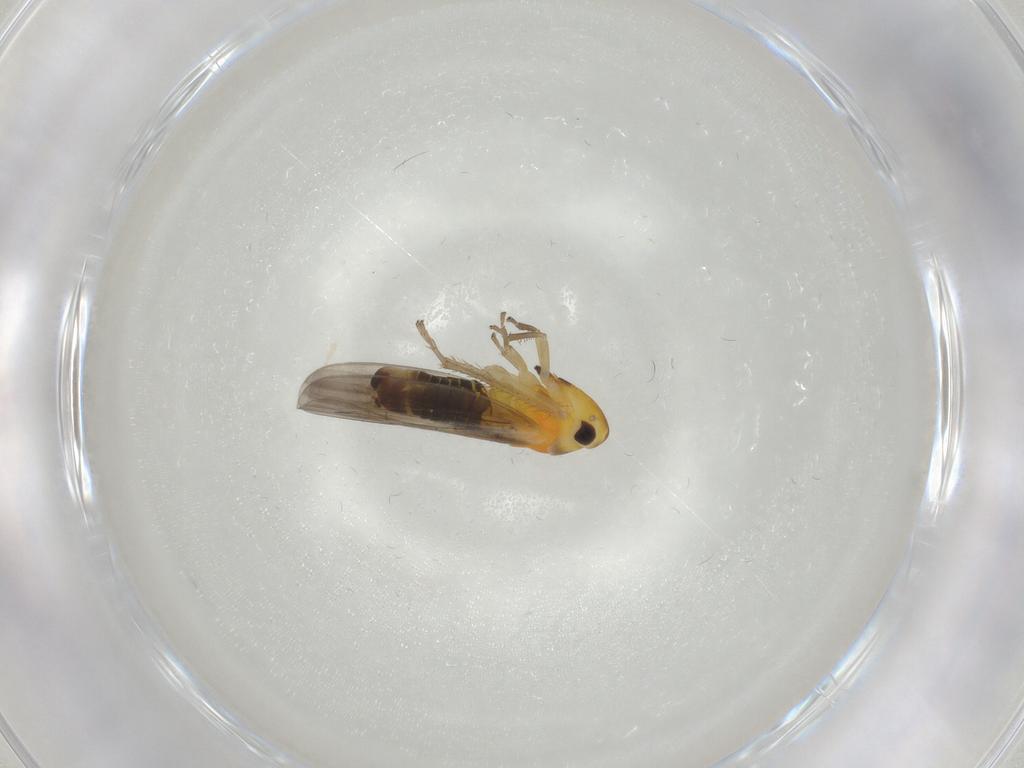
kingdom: Animalia
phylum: Arthropoda
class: Insecta
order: Hemiptera
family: Cicadellidae
